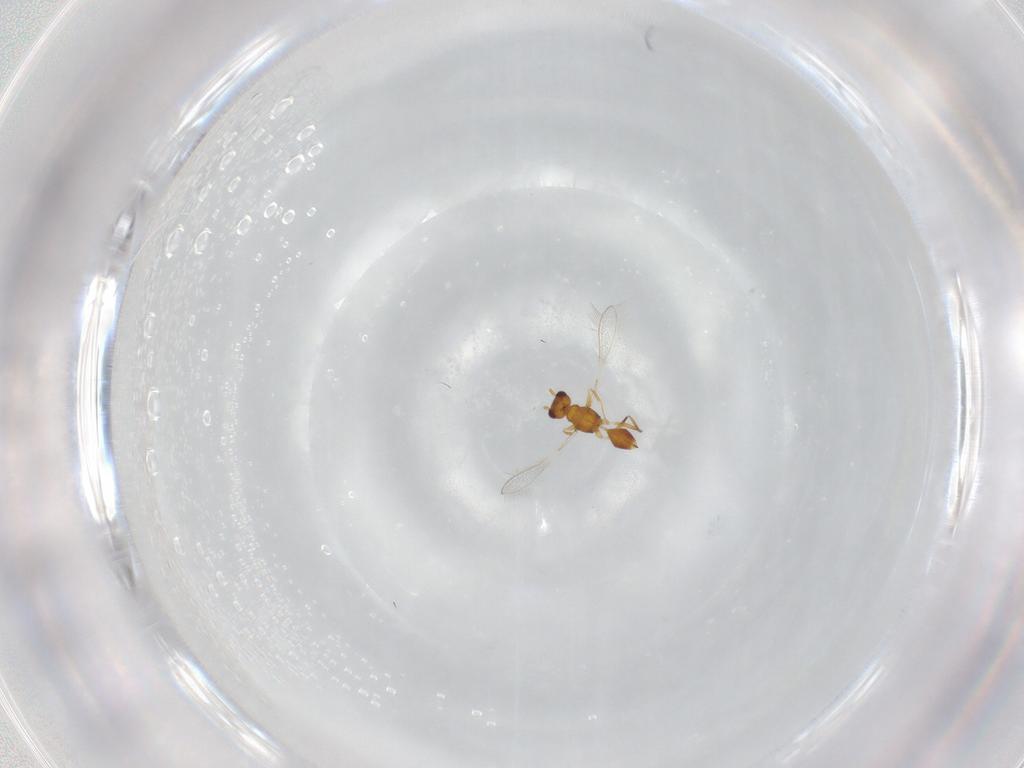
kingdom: Animalia
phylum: Arthropoda
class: Insecta
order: Hymenoptera
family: Mymaridae
